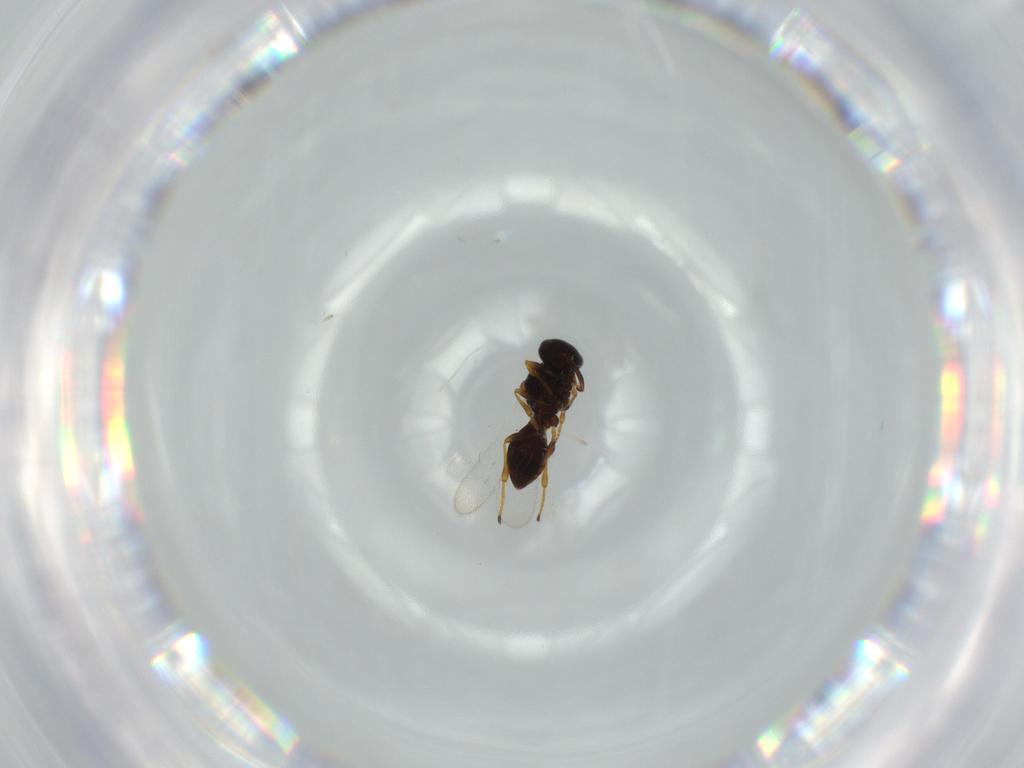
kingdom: Animalia
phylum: Arthropoda
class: Insecta
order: Hymenoptera
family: Platygastridae
